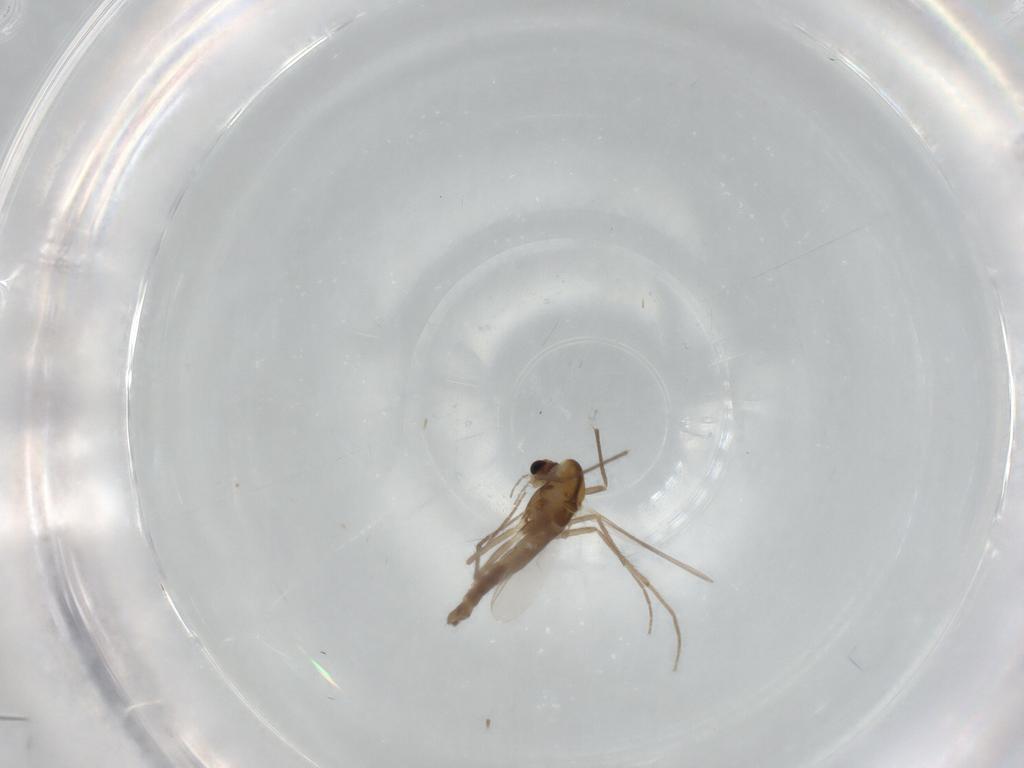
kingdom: Animalia
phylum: Arthropoda
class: Insecta
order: Diptera
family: Chironomidae
